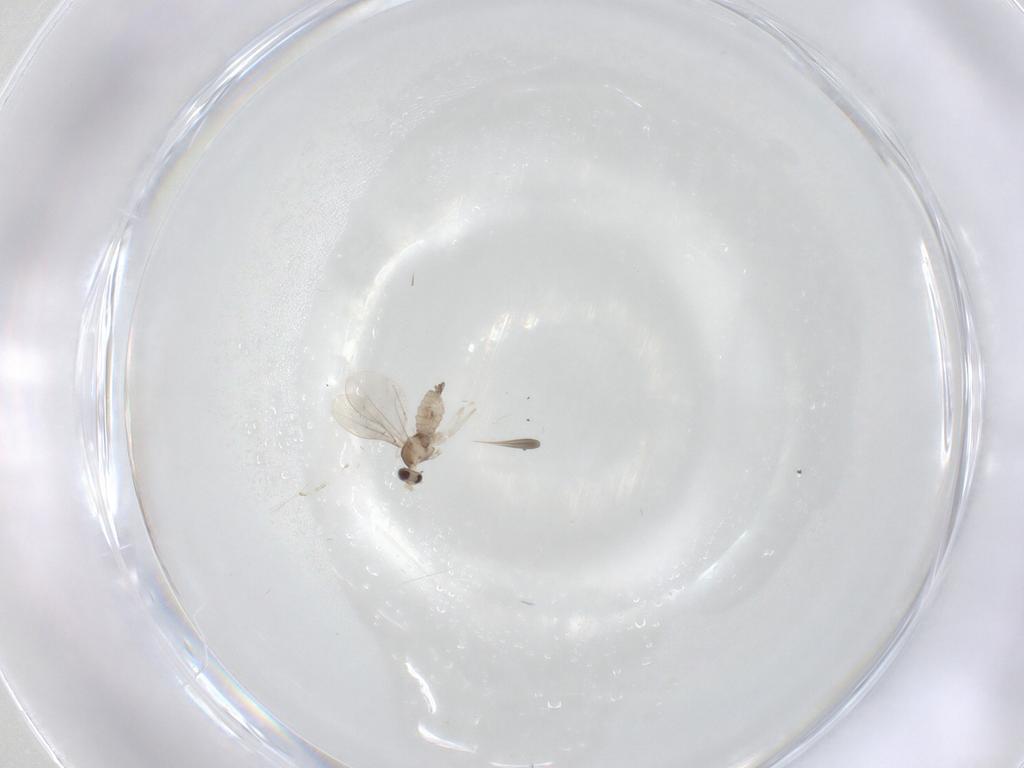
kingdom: Animalia
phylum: Arthropoda
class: Insecta
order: Diptera
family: Cecidomyiidae
